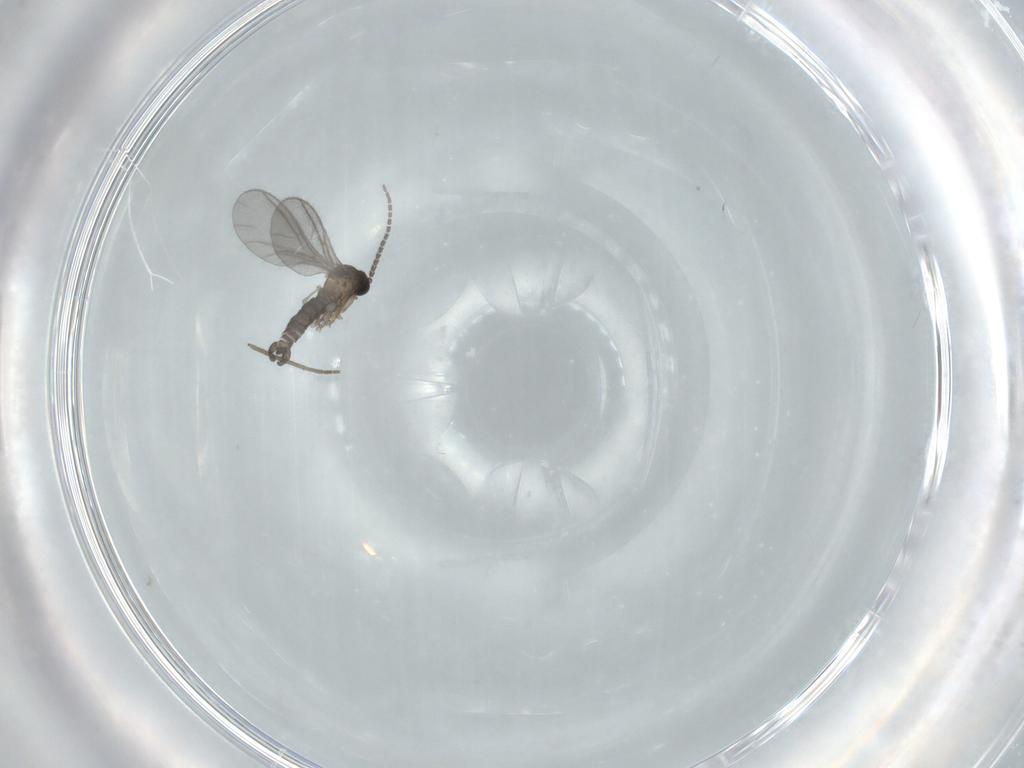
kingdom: Animalia
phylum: Arthropoda
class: Insecta
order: Diptera
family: Sciaridae
